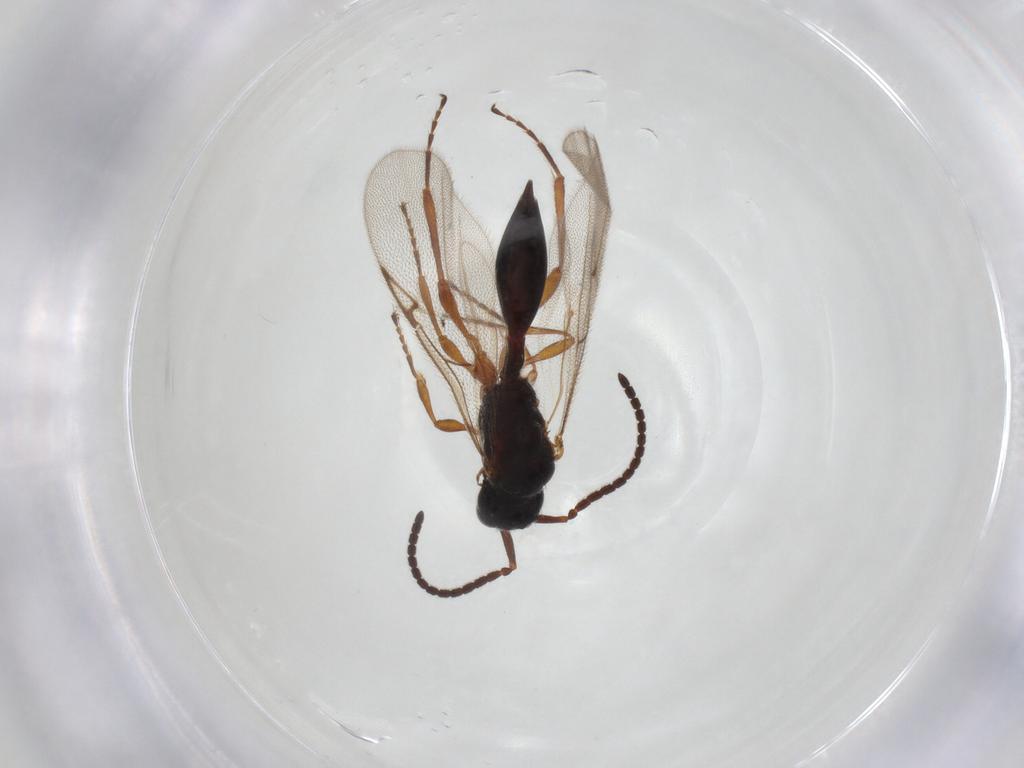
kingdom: Animalia
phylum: Arthropoda
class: Insecta
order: Hymenoptera
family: Diapriidae
